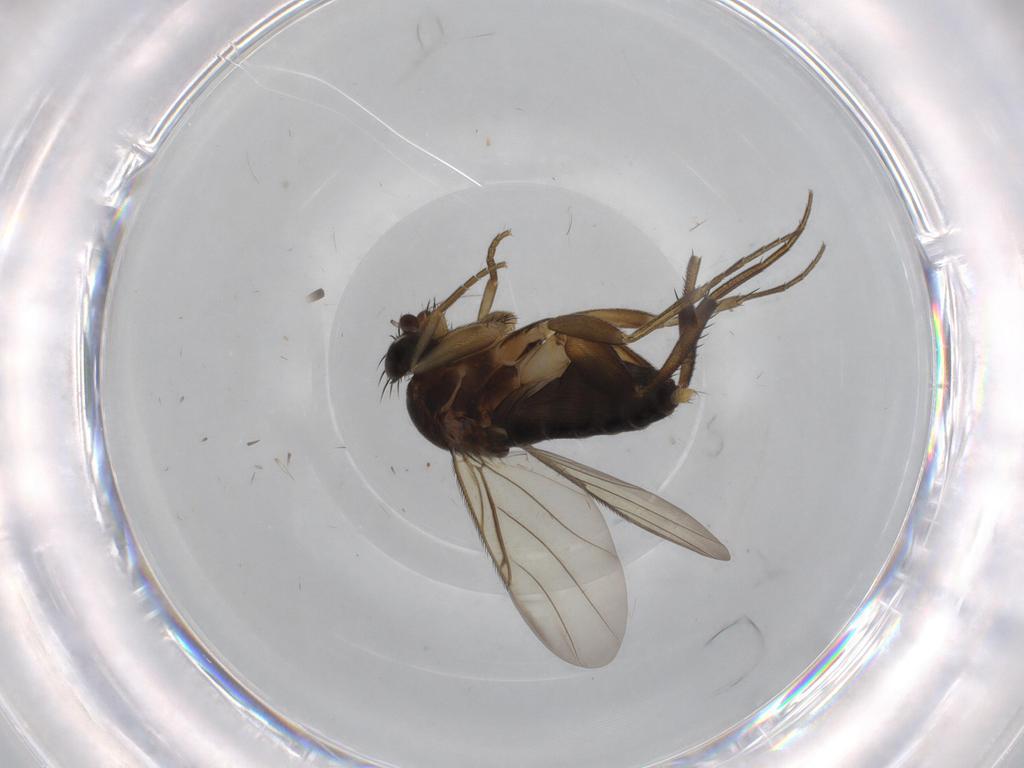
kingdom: Animalia
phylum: Arthropoda
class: Insecta
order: Diptera
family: Phoridae
